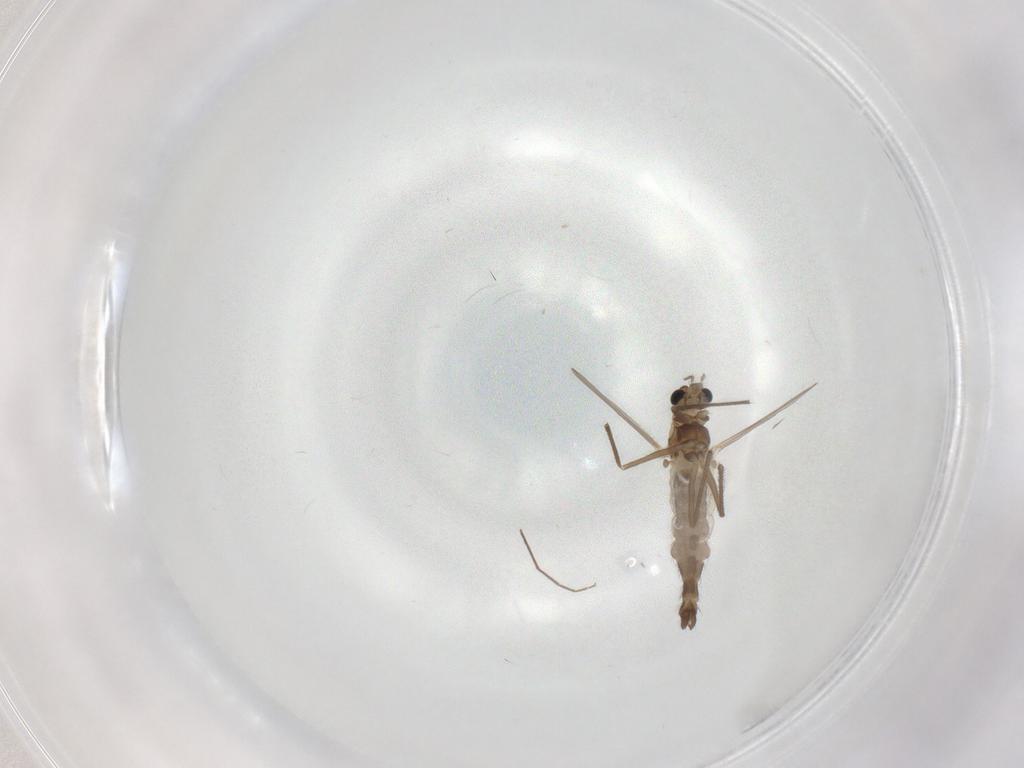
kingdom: Animalia
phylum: Arthropoda
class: Insecta
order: Diptera
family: Chironomidae
